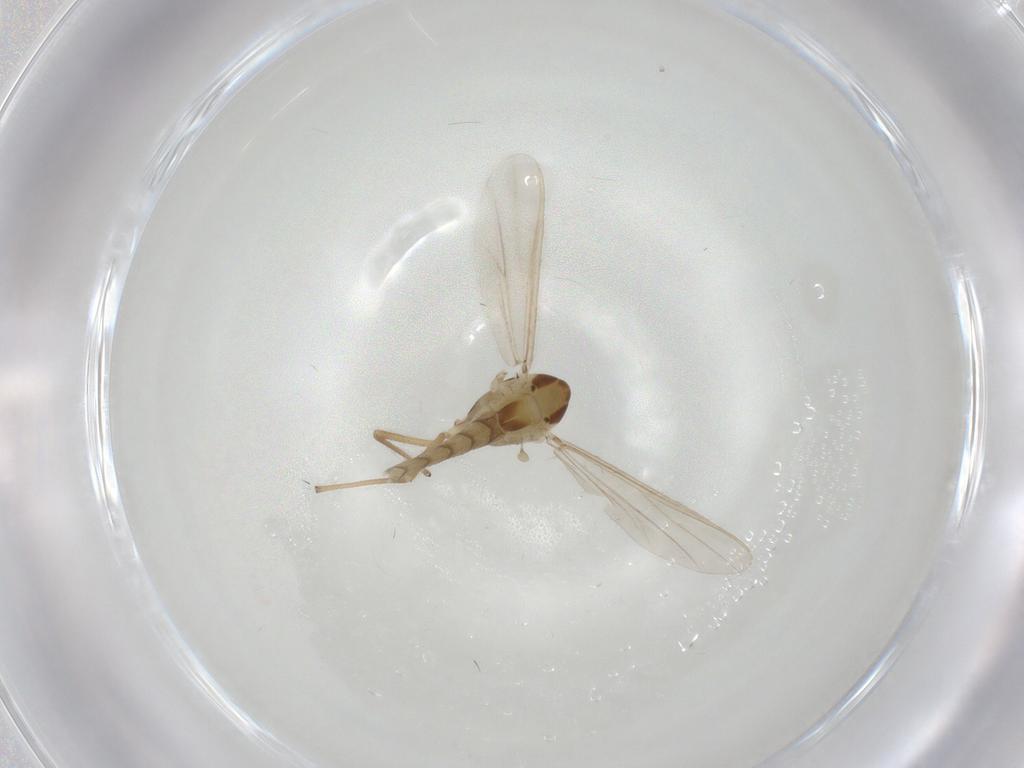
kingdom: Animalia
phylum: Arthropoda
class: Insecta
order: Diptera
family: Chironomidae
